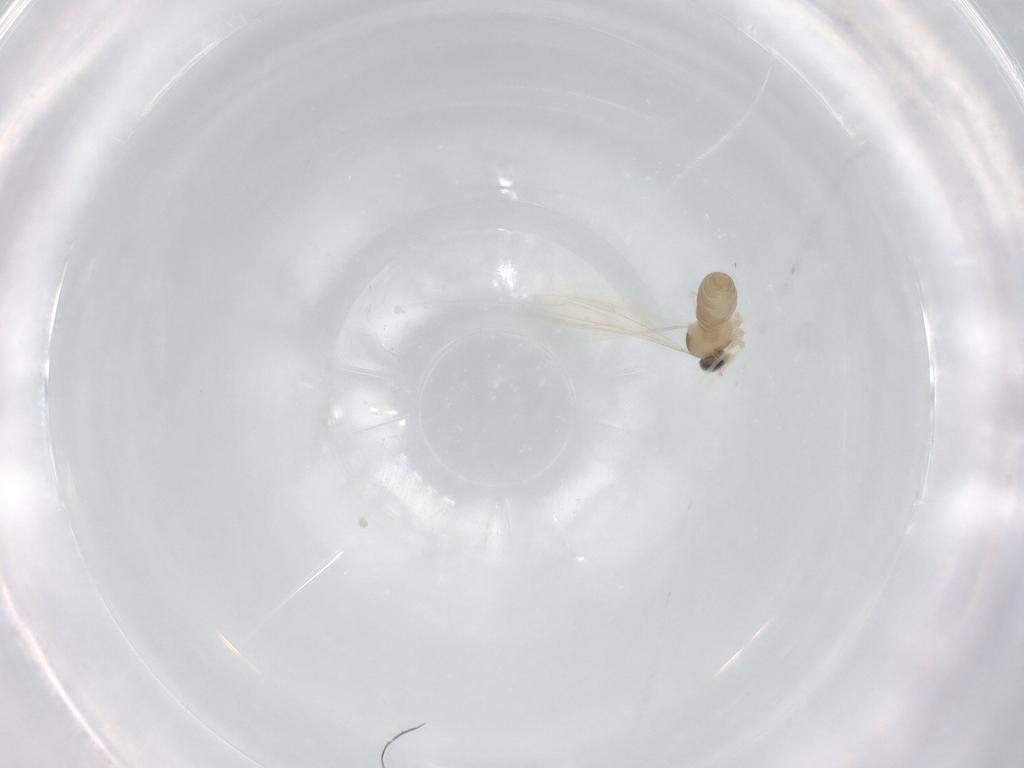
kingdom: Animalia
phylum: Arthropoda
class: Insecta
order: Diptera
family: Cecidomyiidae
